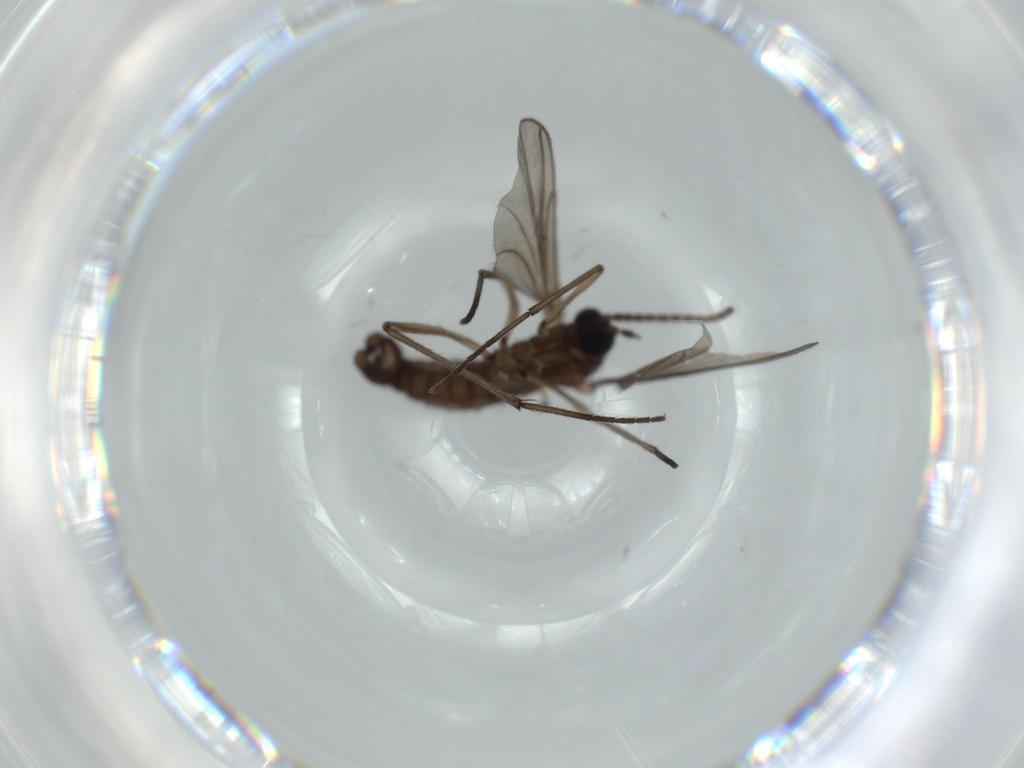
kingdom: Animalia
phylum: Arthropoda
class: Insecta
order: Diptera
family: Sciaridae
